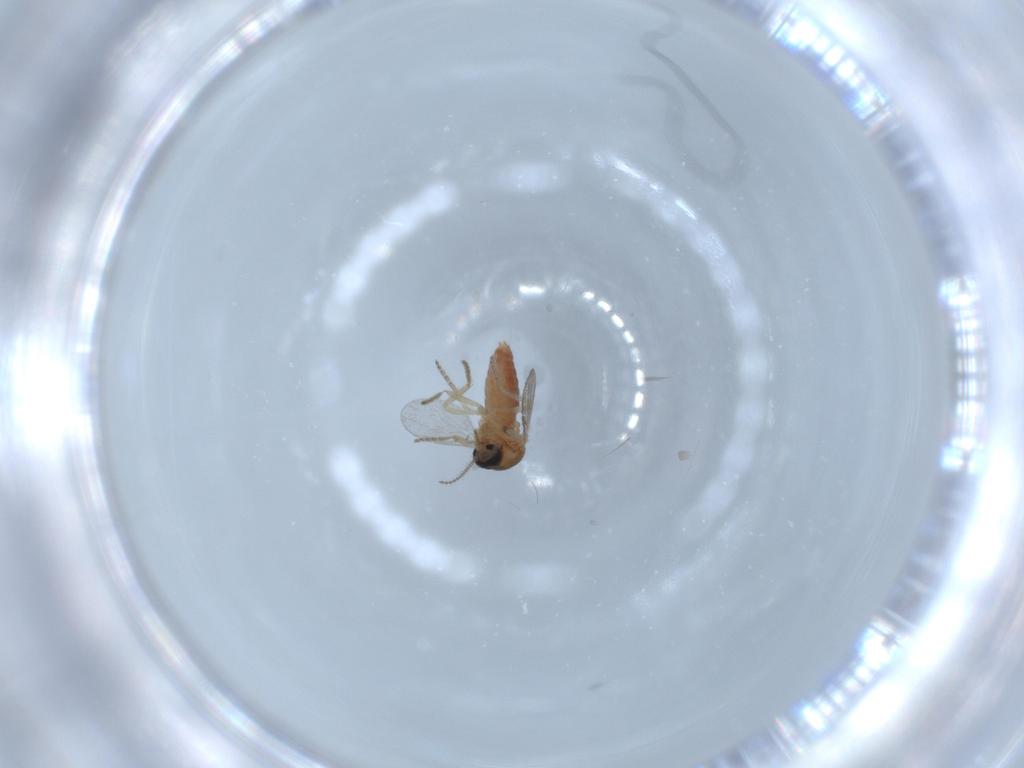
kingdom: Animalia
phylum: Arthropoda
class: Insecta
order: Diptera
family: Ceratopogonidae
